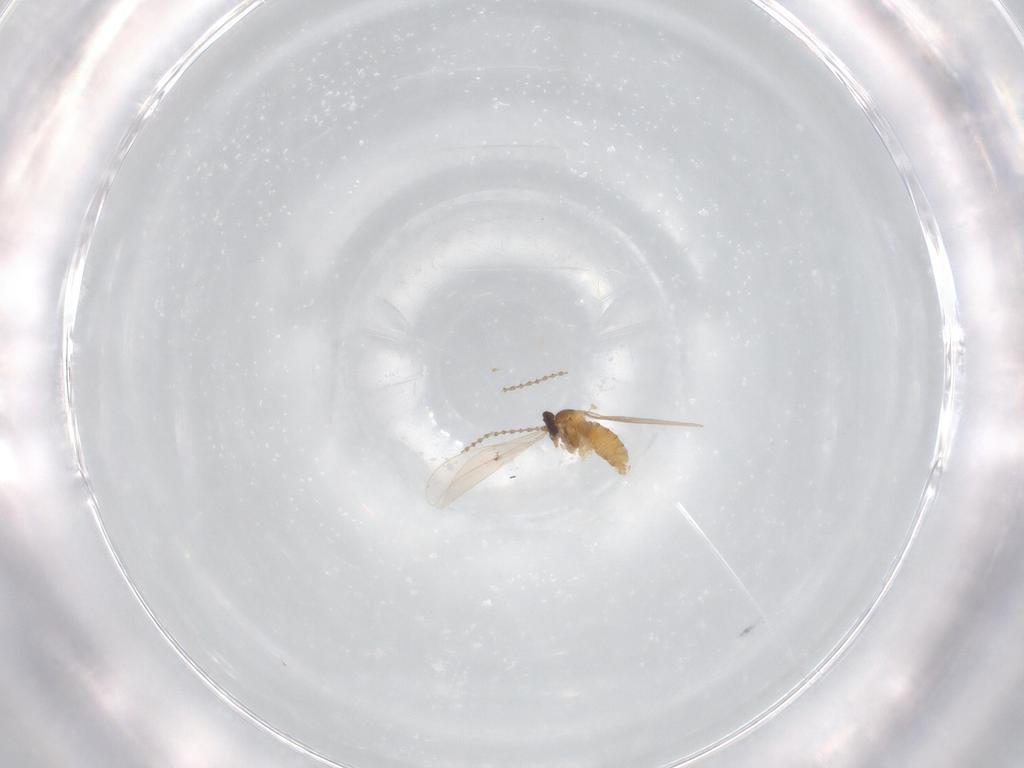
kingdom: Animalia
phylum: Arthropoda
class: Insecta
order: Diptera
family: Cecidomyiidae
